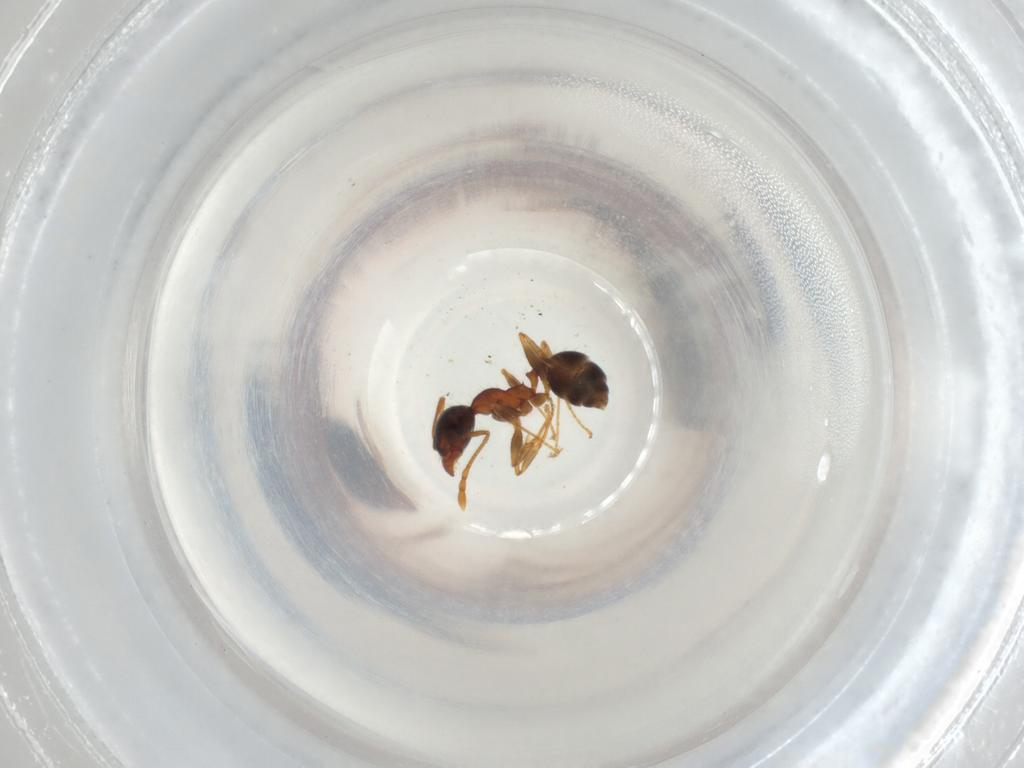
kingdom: Animalia
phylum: Arthropoda
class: Insecta
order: Hymenoptera
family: Formicidae
